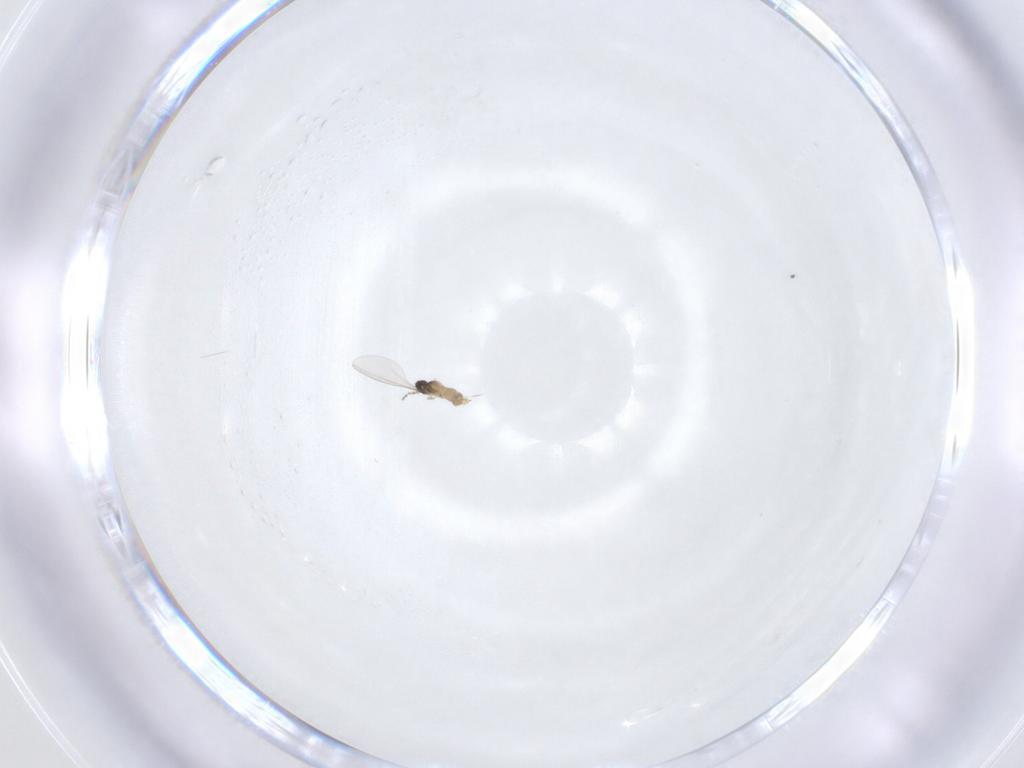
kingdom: Animalia
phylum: Arthropoda
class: Insecta
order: Diptera
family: Cecidomyiidae
